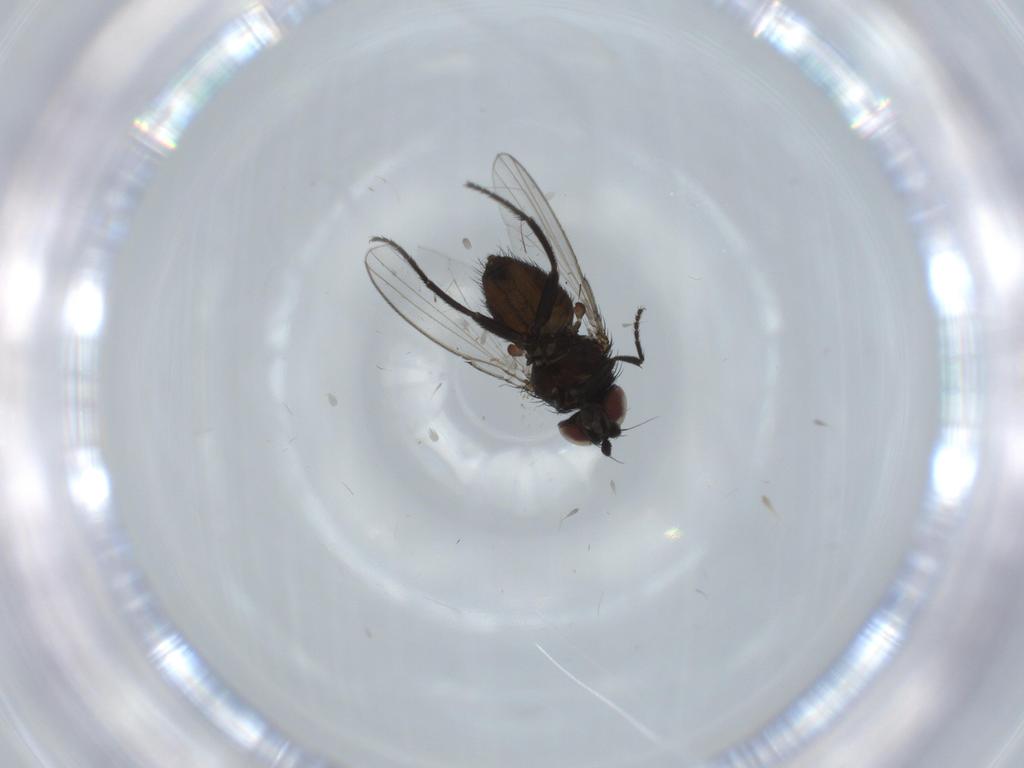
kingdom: Animalia
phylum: Arthropoda
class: Insecta
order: Diptera
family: Milichiidae
